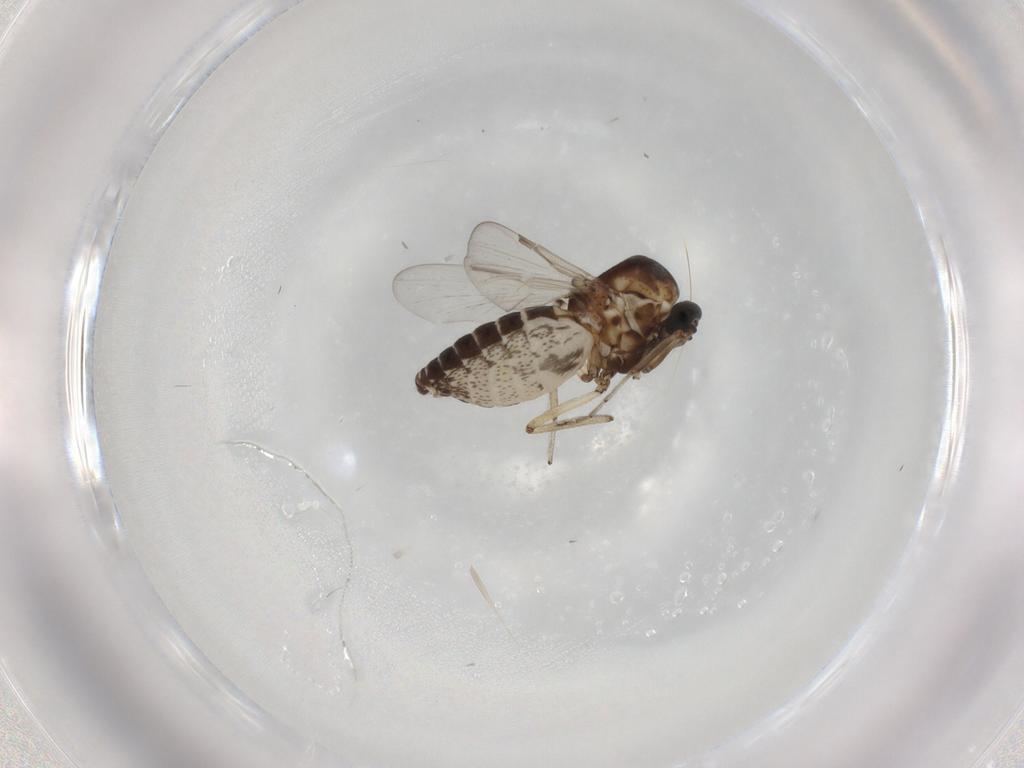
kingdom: Animalia
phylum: Arthropoda
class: Insecta
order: Diptera
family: Ceratopogonidae
